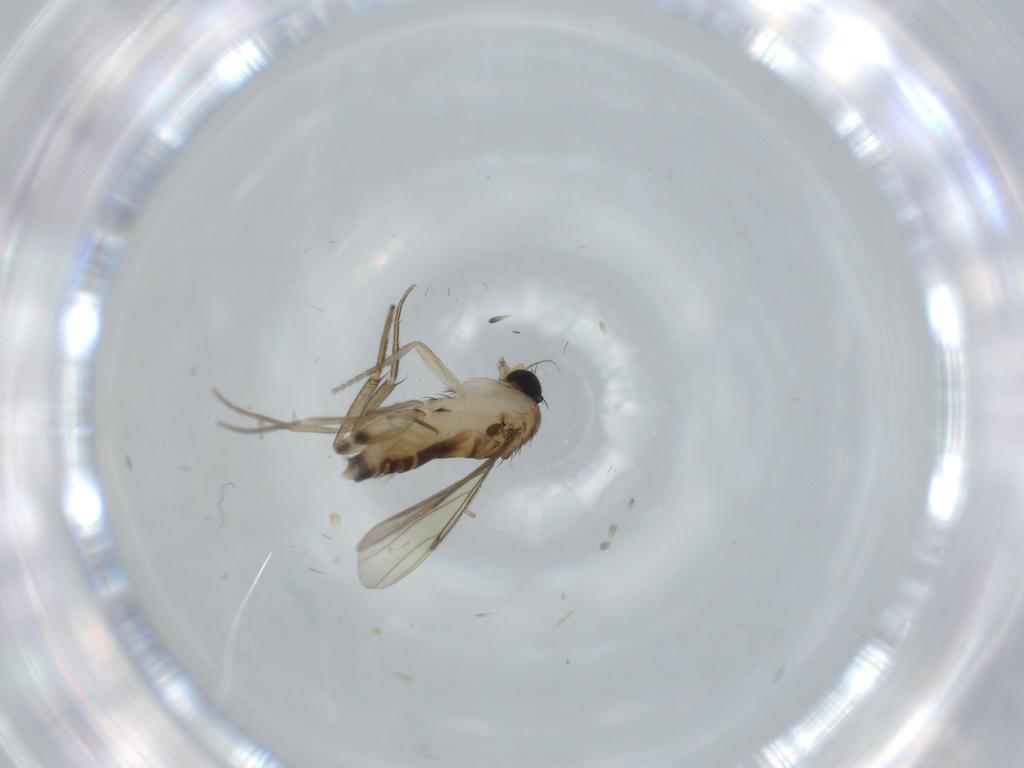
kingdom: Animalia
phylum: Arthropoda
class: Insecta
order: Diptera
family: Phoridae
